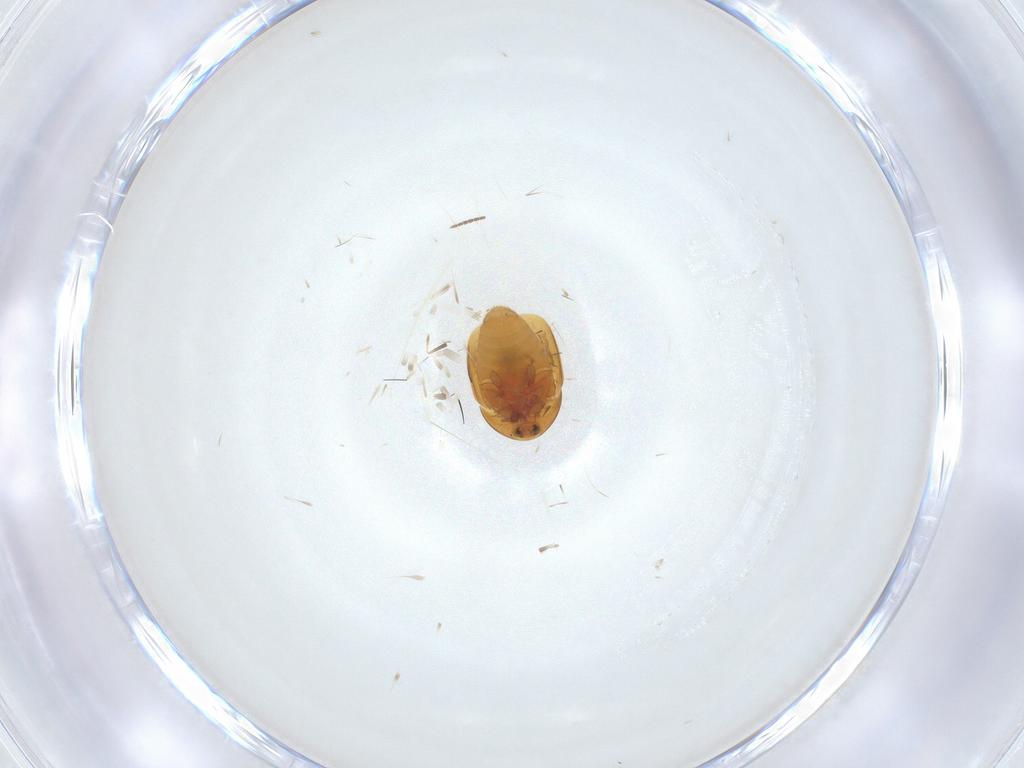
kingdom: Animalia
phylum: Arthropoda
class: Insecta
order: Coleoptera
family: Corylophidae
